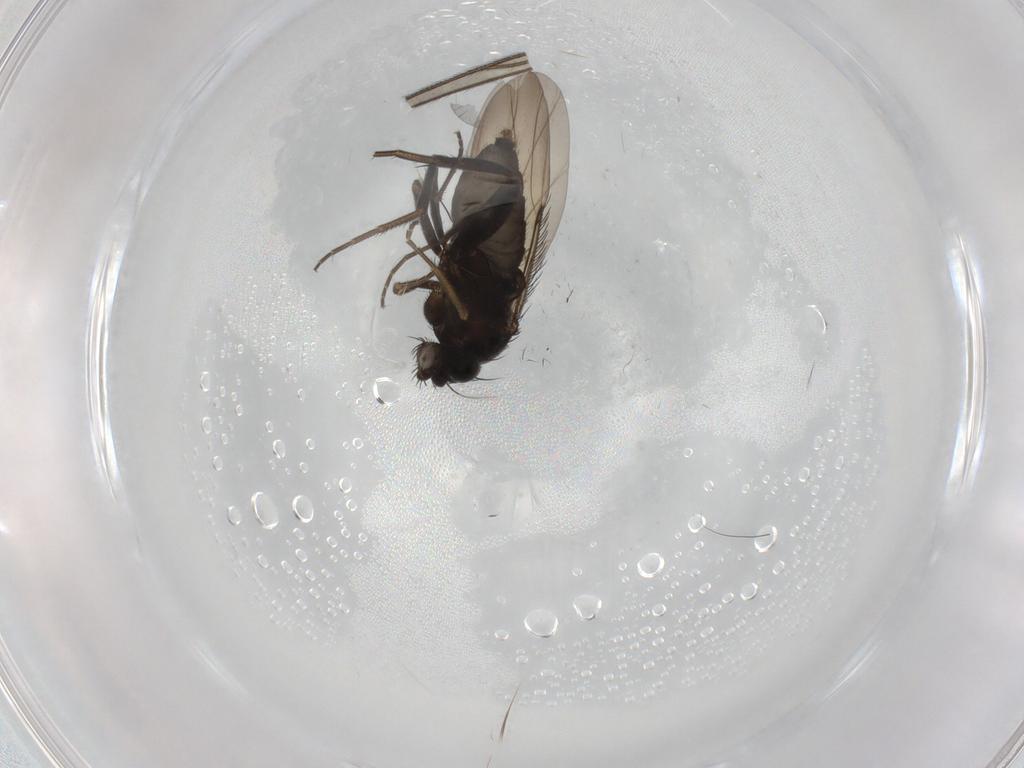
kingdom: Animalia
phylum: Arthropoda
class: Insecta
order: Diptera
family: Phoridae
